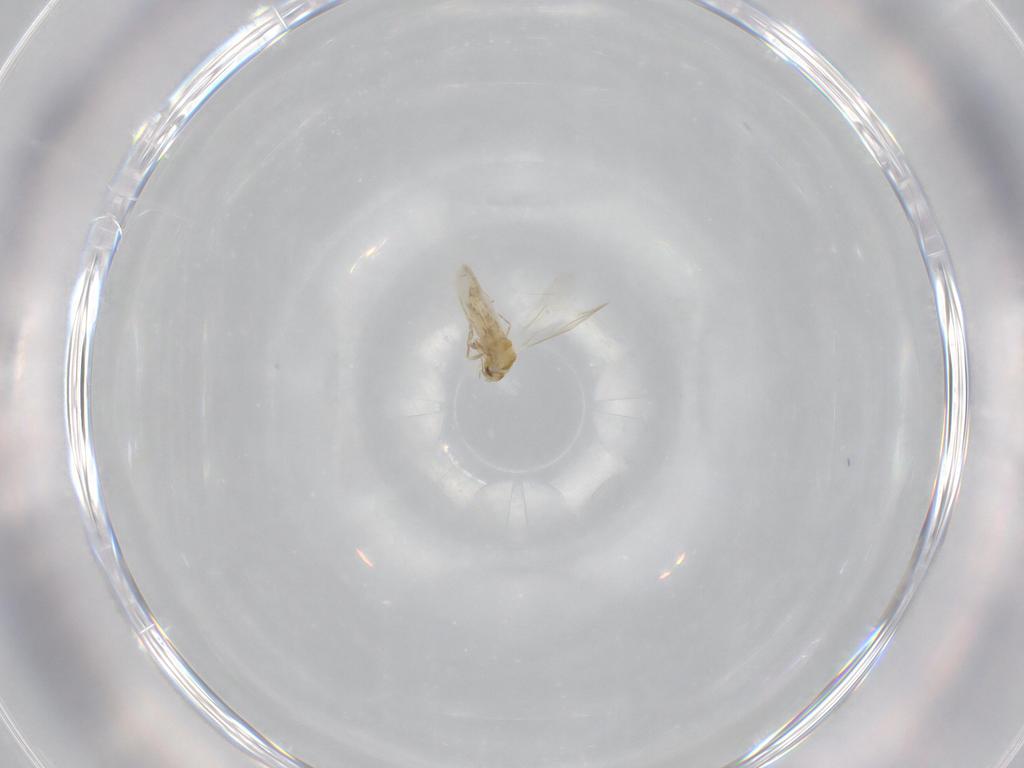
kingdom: Animalia
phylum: Arthropoda
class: Insecta
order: Hemiptera
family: Aleyrodidae
